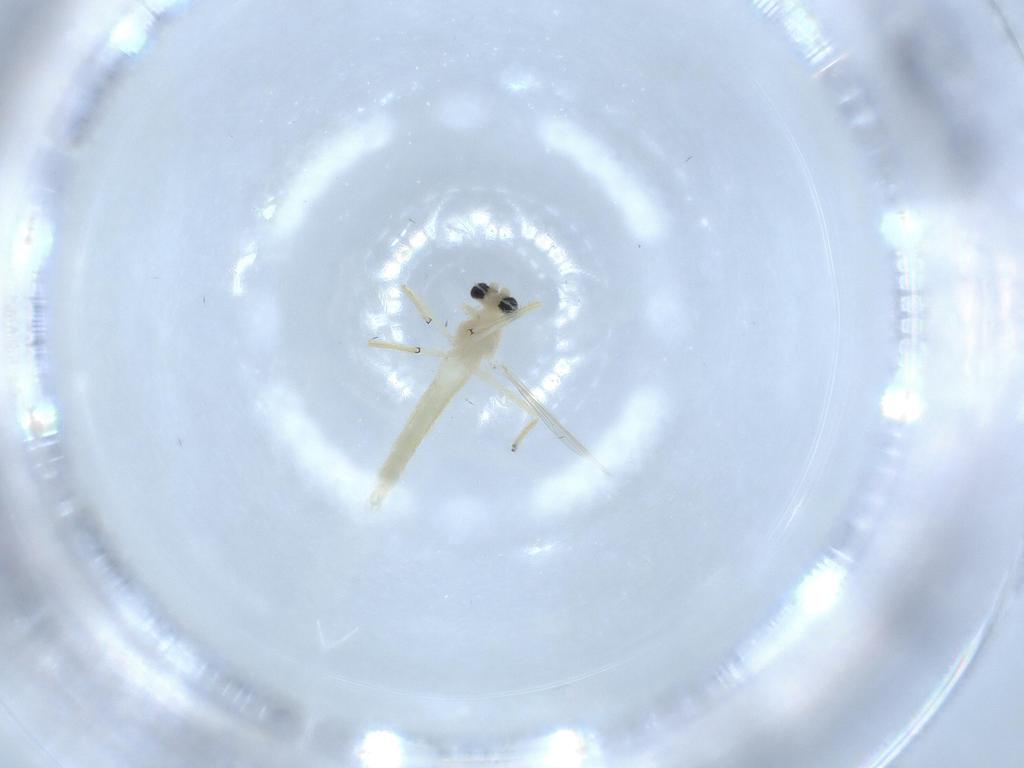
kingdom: Animalia
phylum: Arthropoda
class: Insecta
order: Diptera
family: Chironomidae
